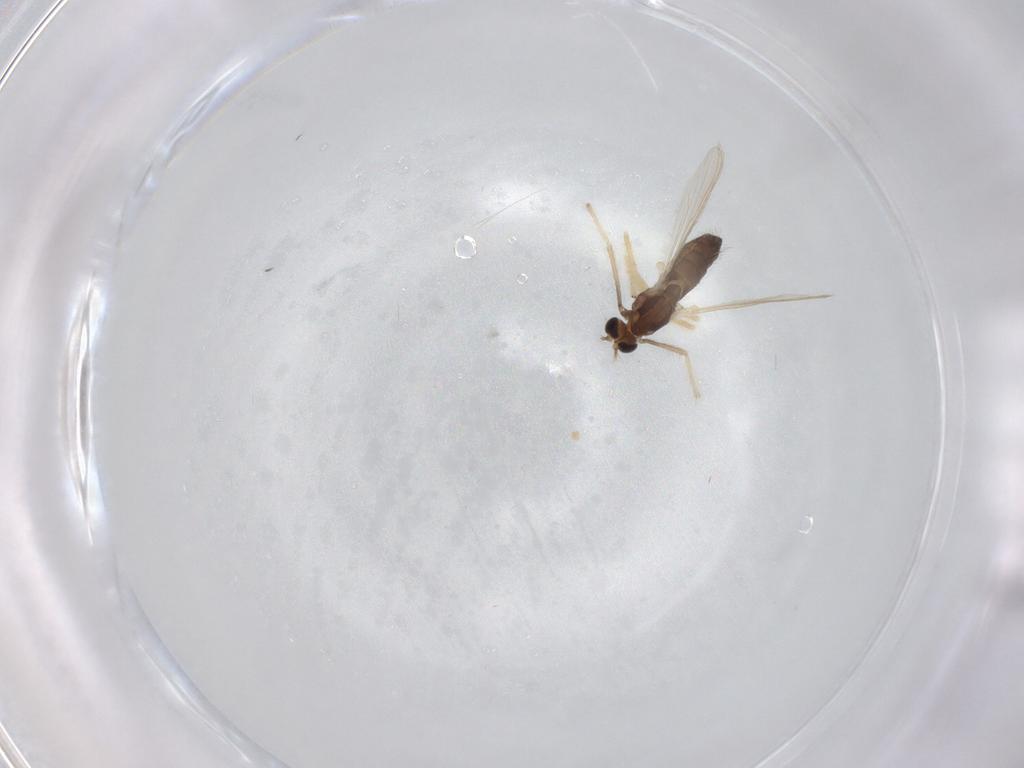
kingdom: Animalia
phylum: Arthropoda
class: Insecta
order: Diptera
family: Chironomidae
